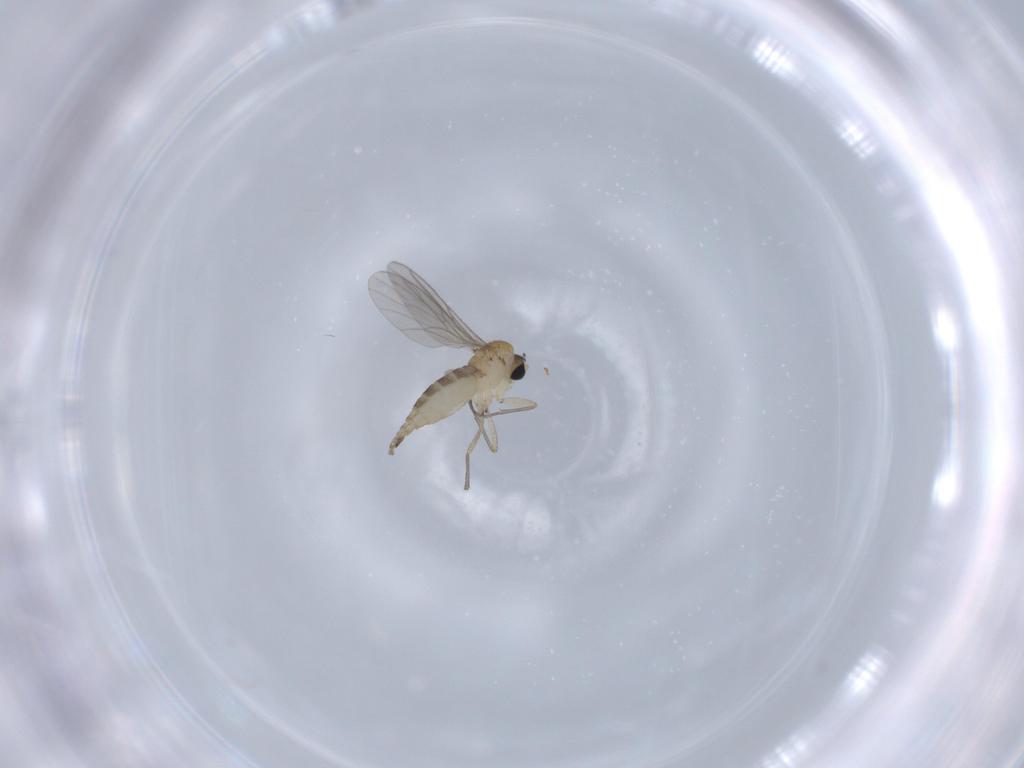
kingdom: Animalia
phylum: Arthropoda
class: Insecta
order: Diptera
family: Sciaridae
